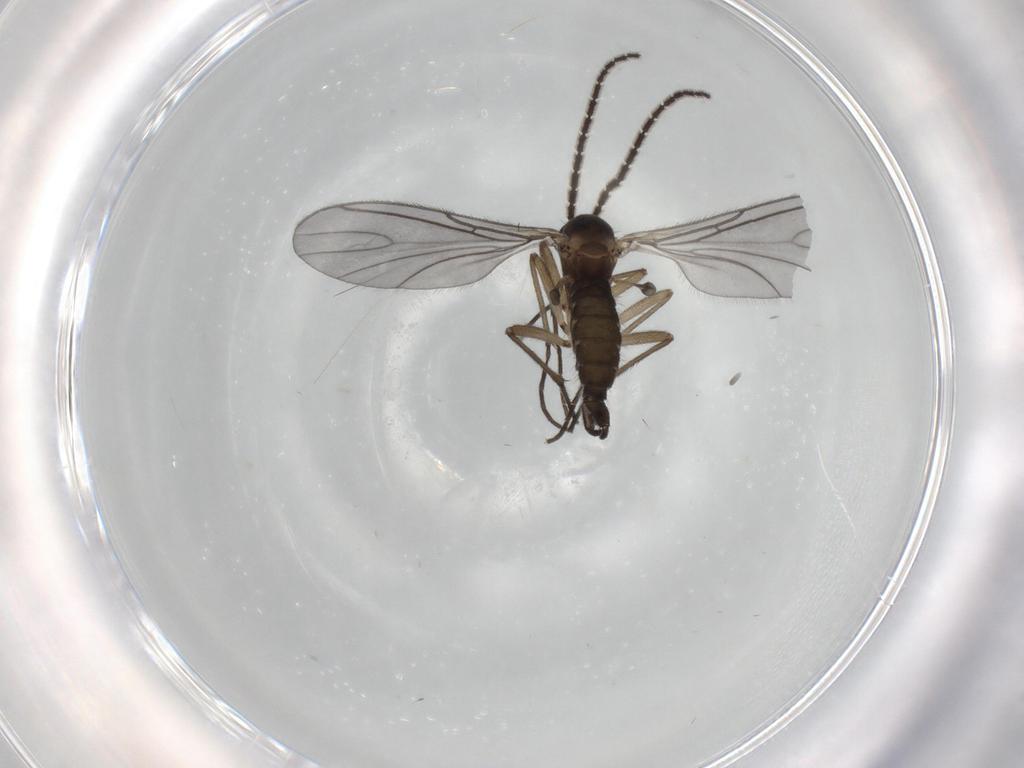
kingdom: Animalia
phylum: Arthropoda
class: Insecta
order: Diptera
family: Sciaridae
